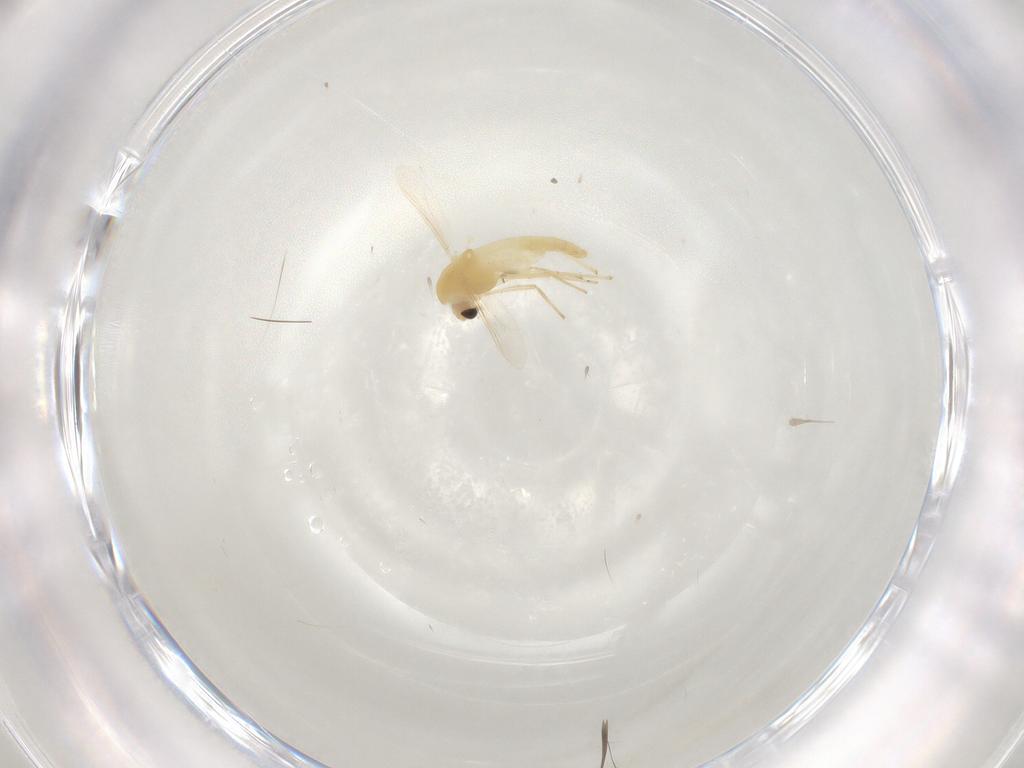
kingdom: Animalia
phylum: Arthropoda
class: Insecta
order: Diptera
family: Chironomidae
